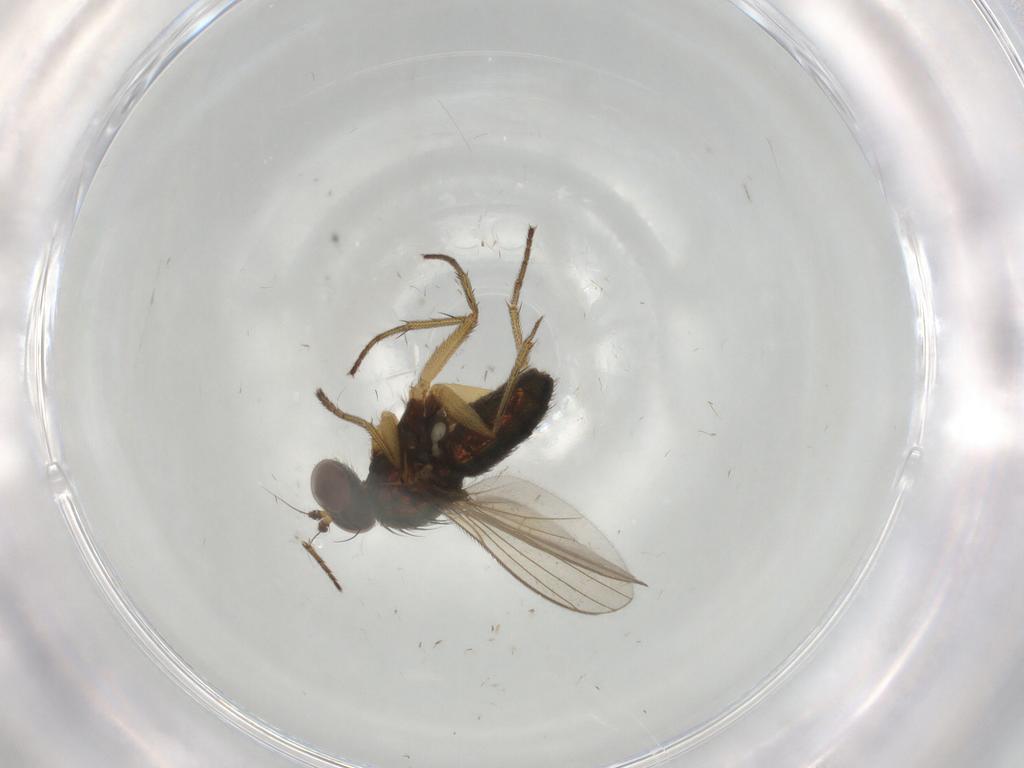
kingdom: Animalia
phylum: Arthropoda
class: Insecta
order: Diptera
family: Dolichopodidae
